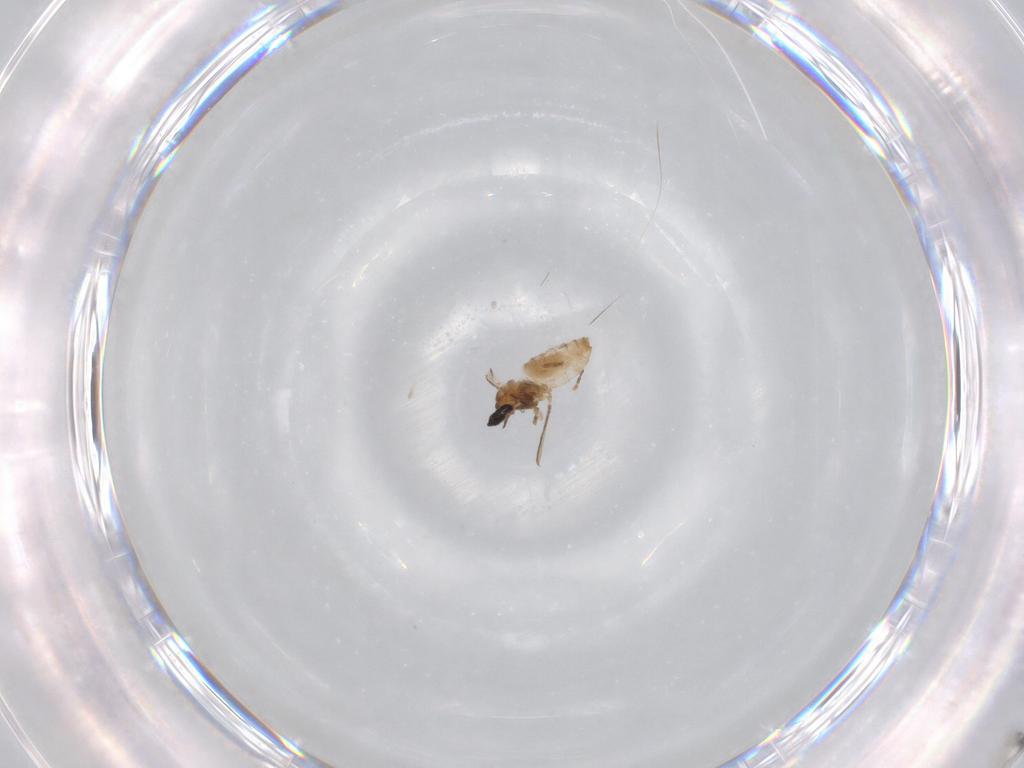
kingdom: Animalia
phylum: Arthropoda
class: Insecta
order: Diptera
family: Cecidomyiidae
